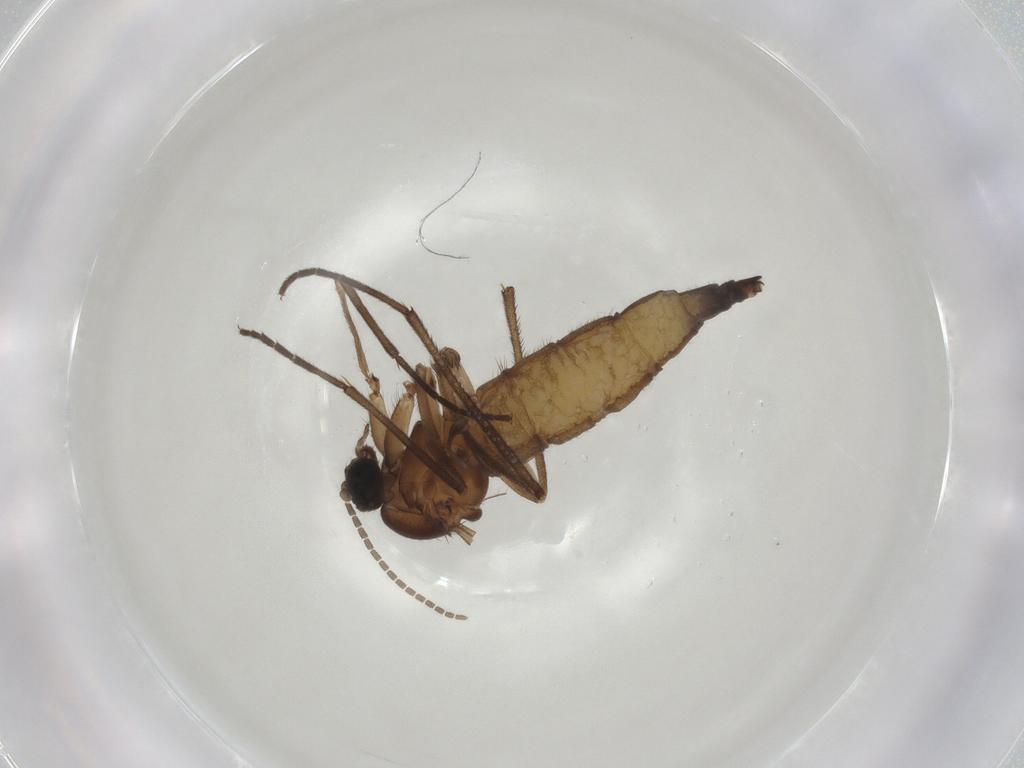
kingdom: Animalia
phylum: Arthropoda
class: Insecta
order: Diptera
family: Sciaridae
